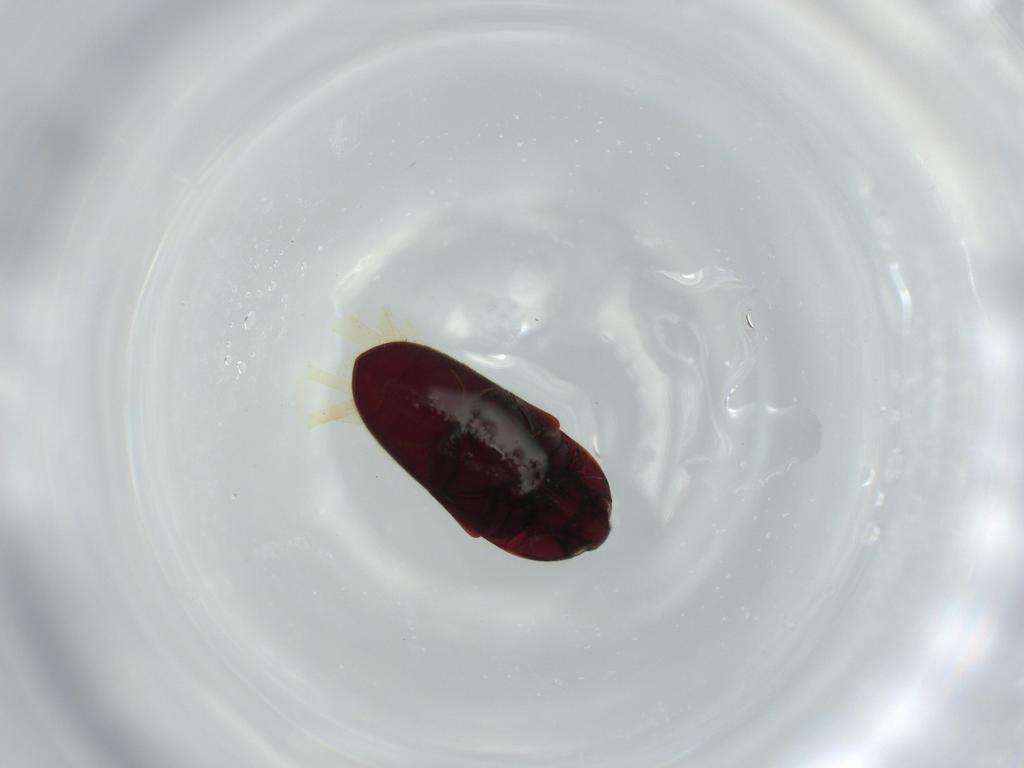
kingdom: Animalia
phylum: Arthropoda
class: Insecta
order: Coleoptera
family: Throscidae
